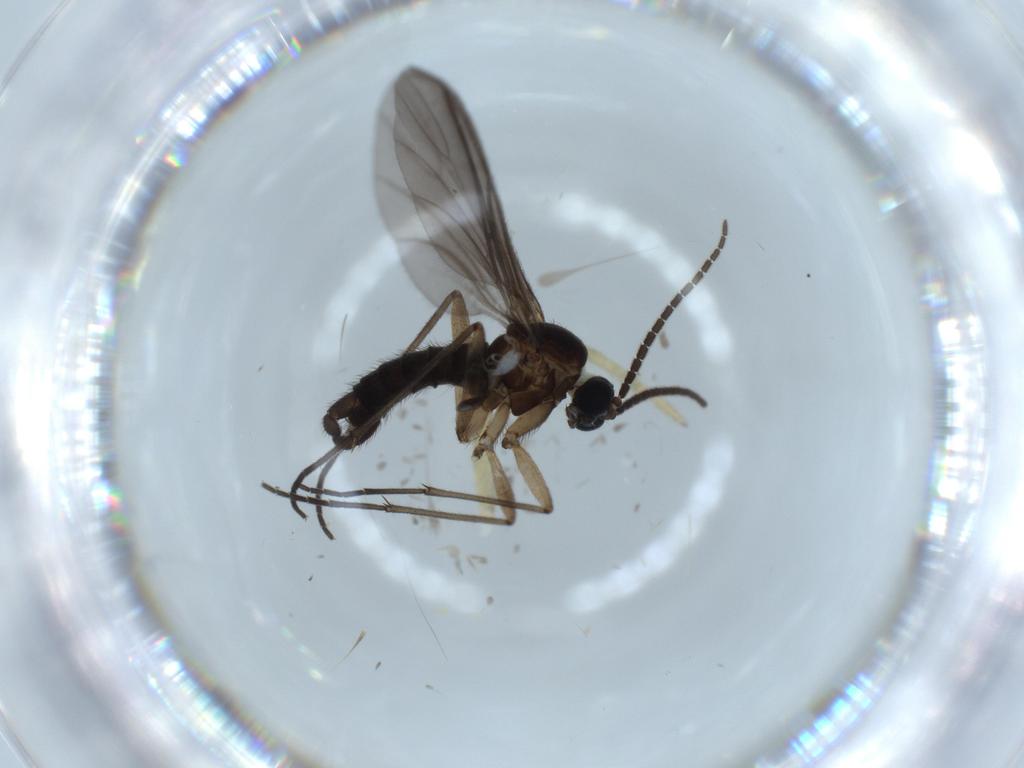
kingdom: Animalia
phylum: Arthropoda
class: Insecta
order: Diptera
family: Sciaridae
